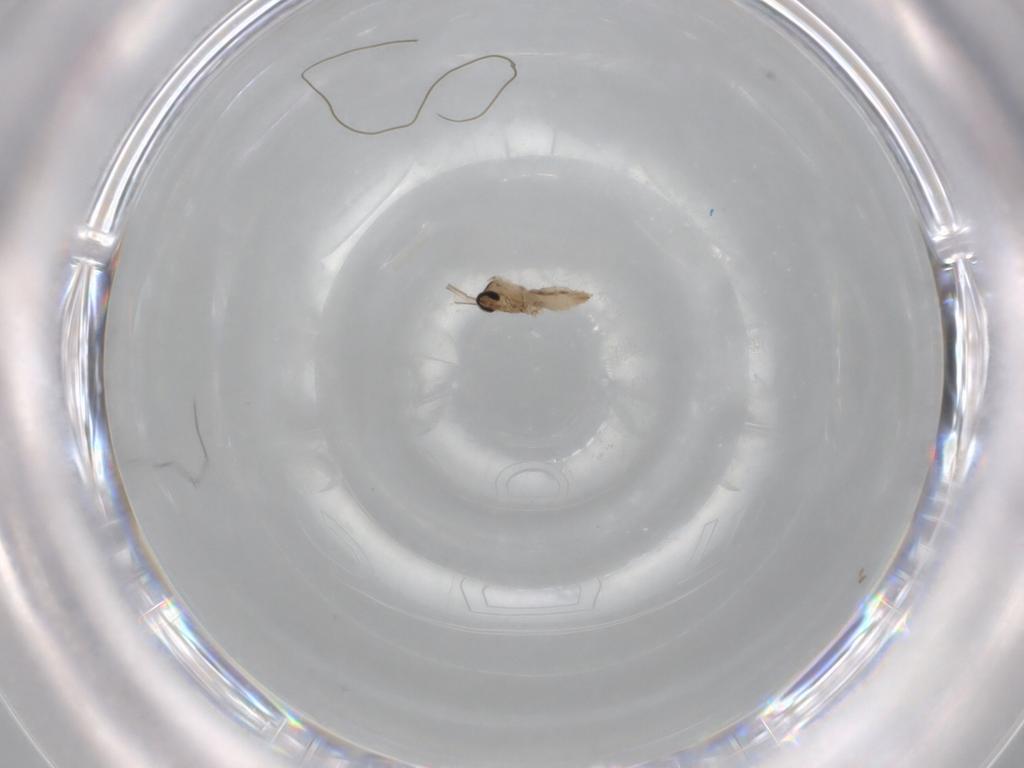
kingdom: Animalia
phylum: Arthropoda
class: Insecta
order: Diptera
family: Cecidomyiidae
